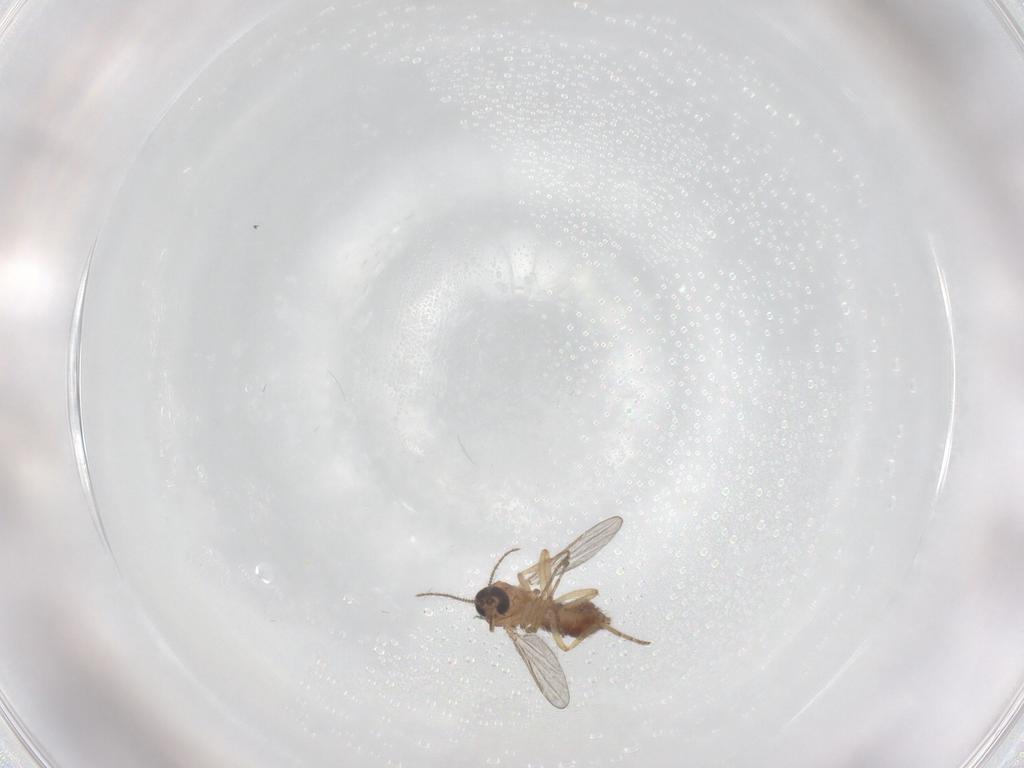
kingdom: Animalia
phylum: Arthropoda
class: Insecta
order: Diptera
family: Ceratopogonidae
